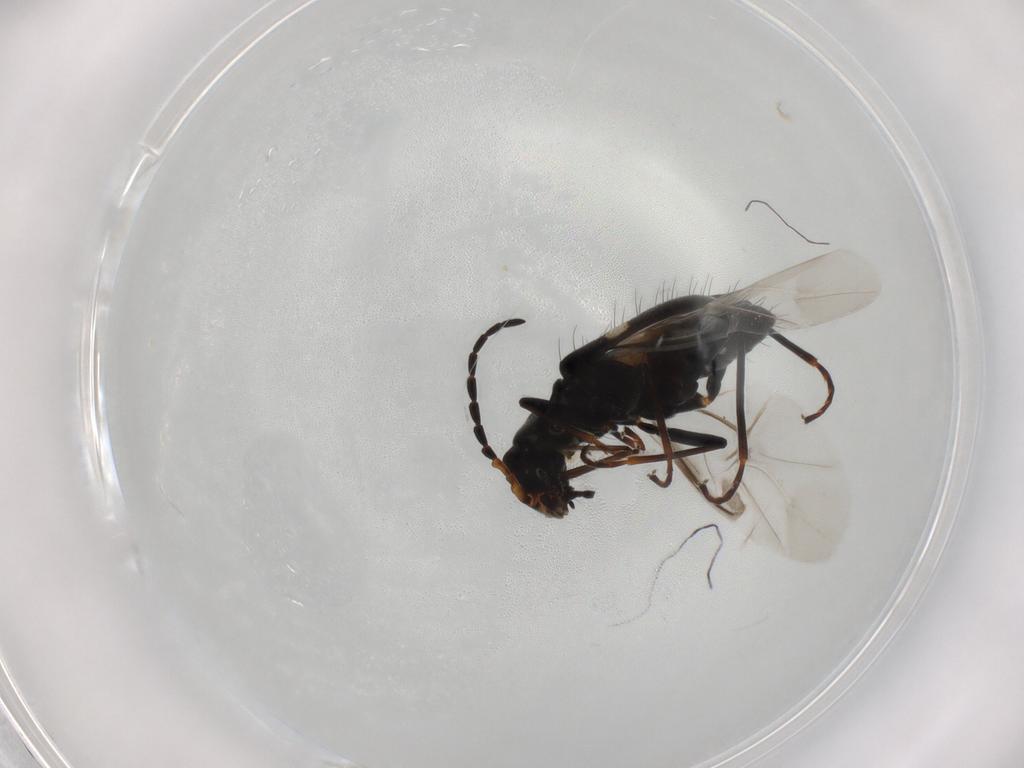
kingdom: Animalia
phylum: Arthropoda
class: Insecta
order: Coleoptera
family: Melyridae
